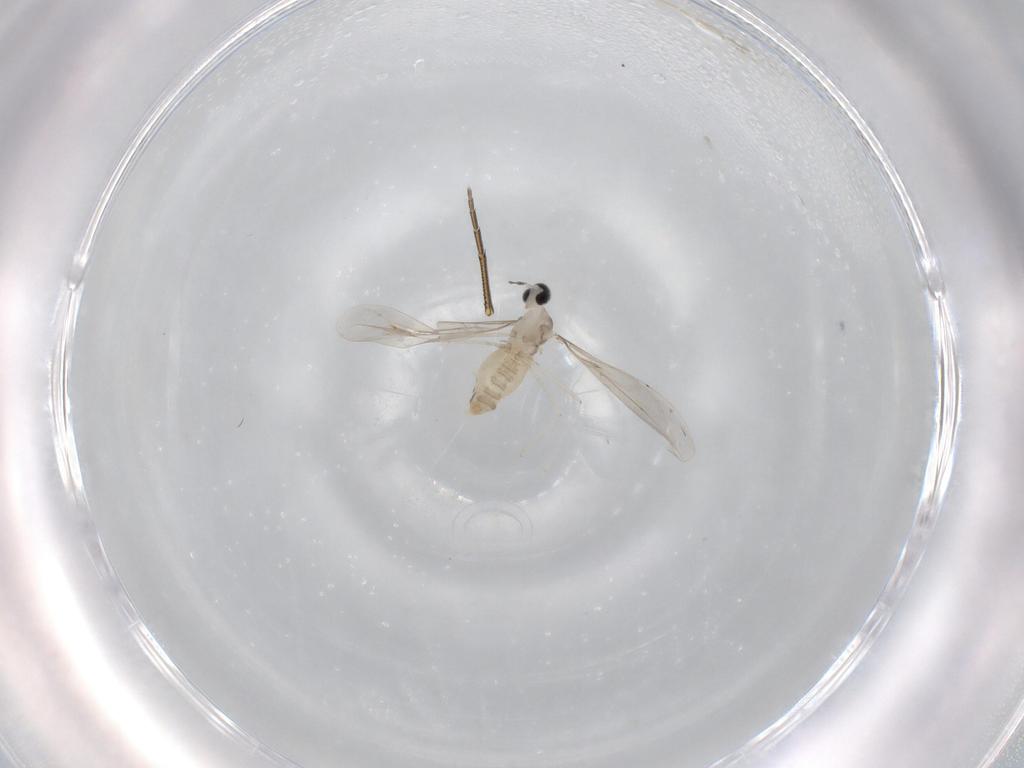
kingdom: Animalia
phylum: Arthropoda
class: Insecta
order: Diptera
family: Cecidomyiidae
